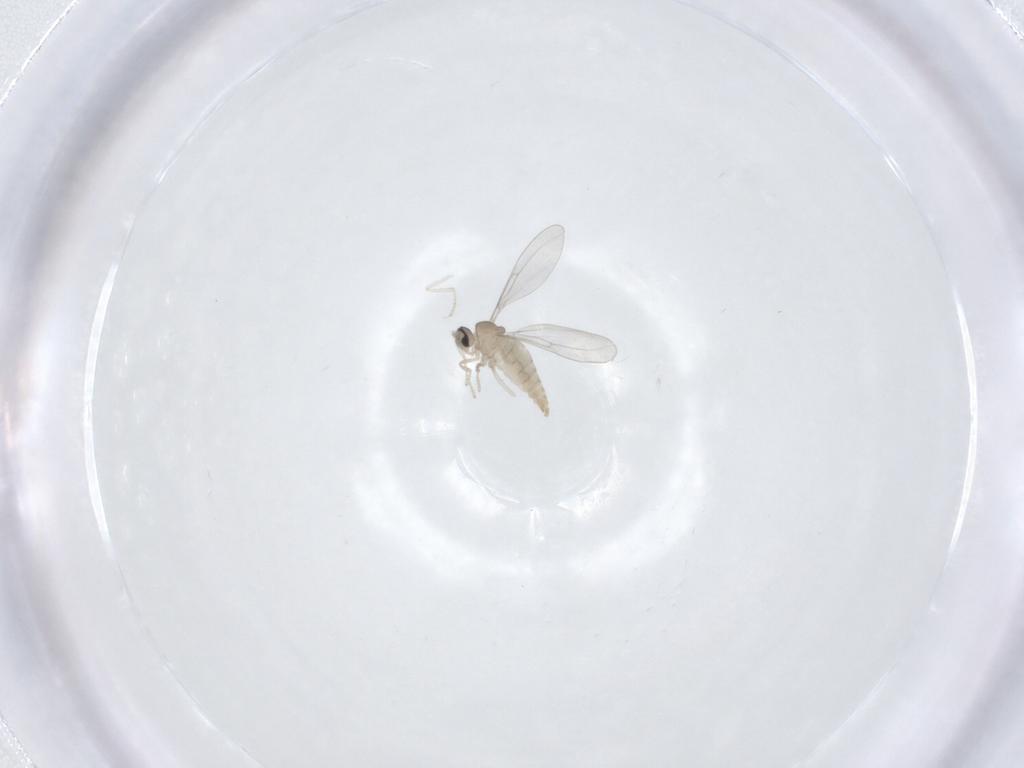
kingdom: Animalia
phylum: Arthropoda
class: Insecta
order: Diptera
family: Cecidomyiidae
